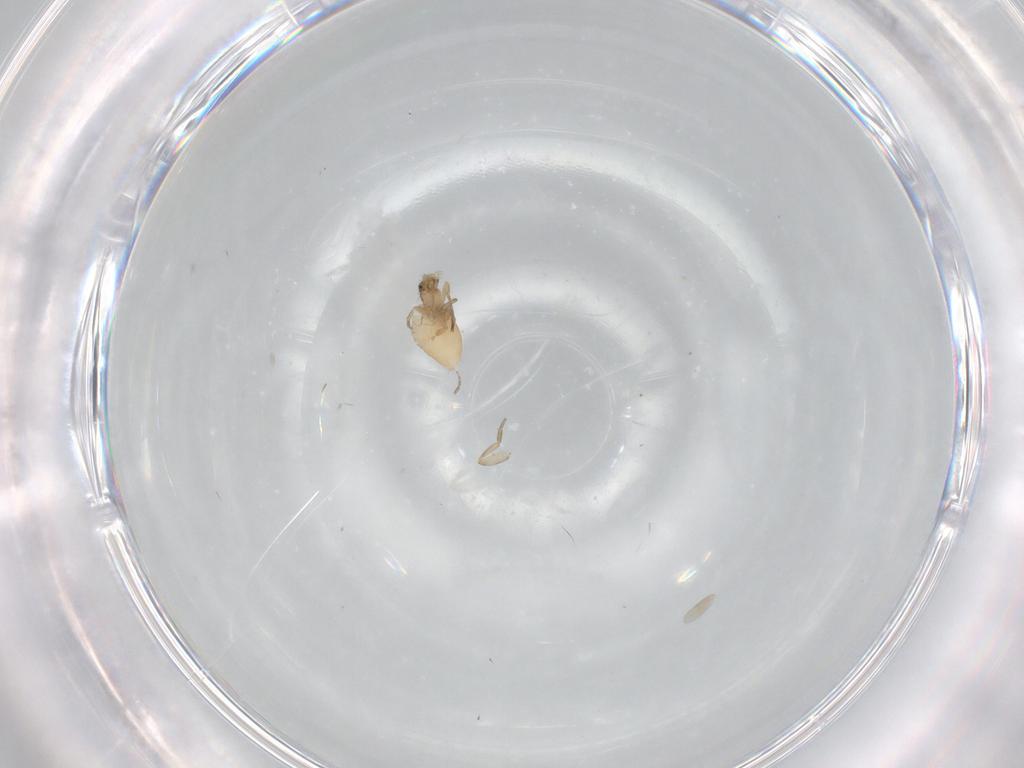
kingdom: Animalia
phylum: Arthropoda
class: Insecta
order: Diptera
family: Phoridae
